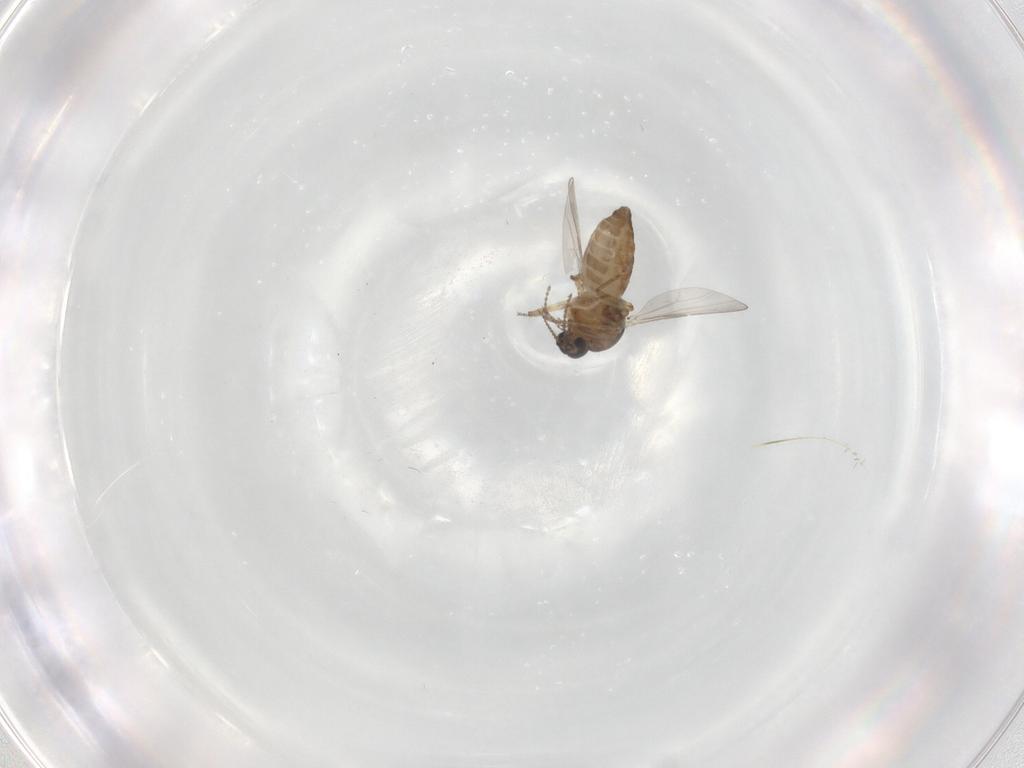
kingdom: Animalia
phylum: Arthropoda
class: Insecta
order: Diptera
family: Ceratopogonidae
